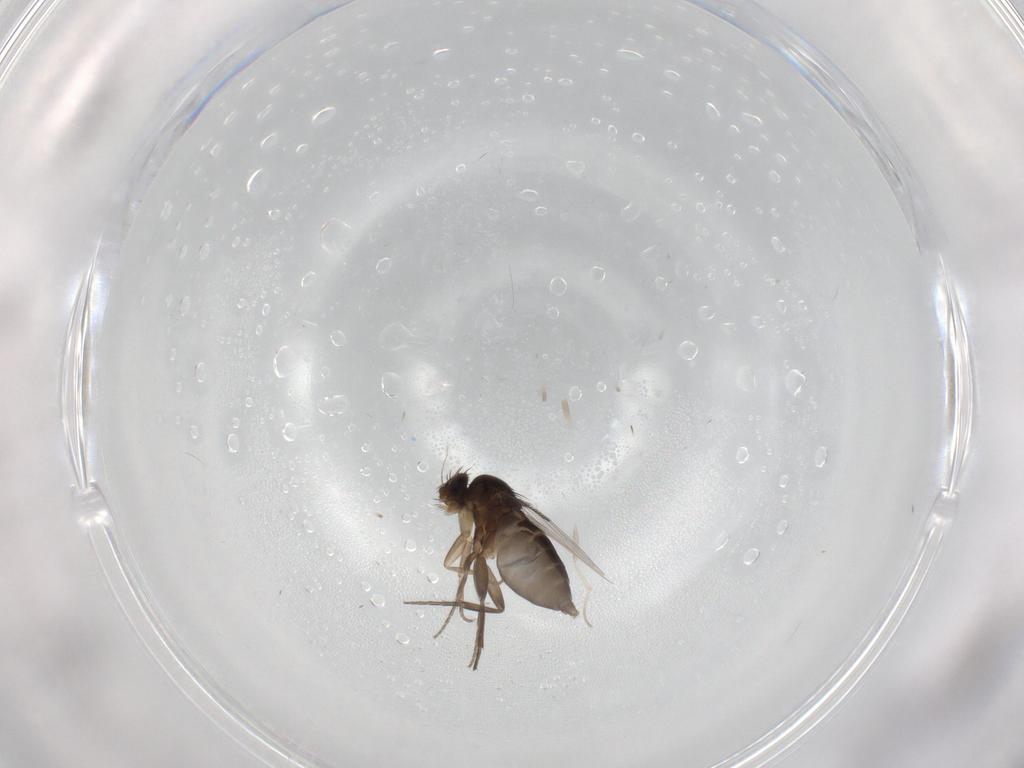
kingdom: Animalia
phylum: Arthropoda
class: Insecta
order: Diptera
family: Phoridae
